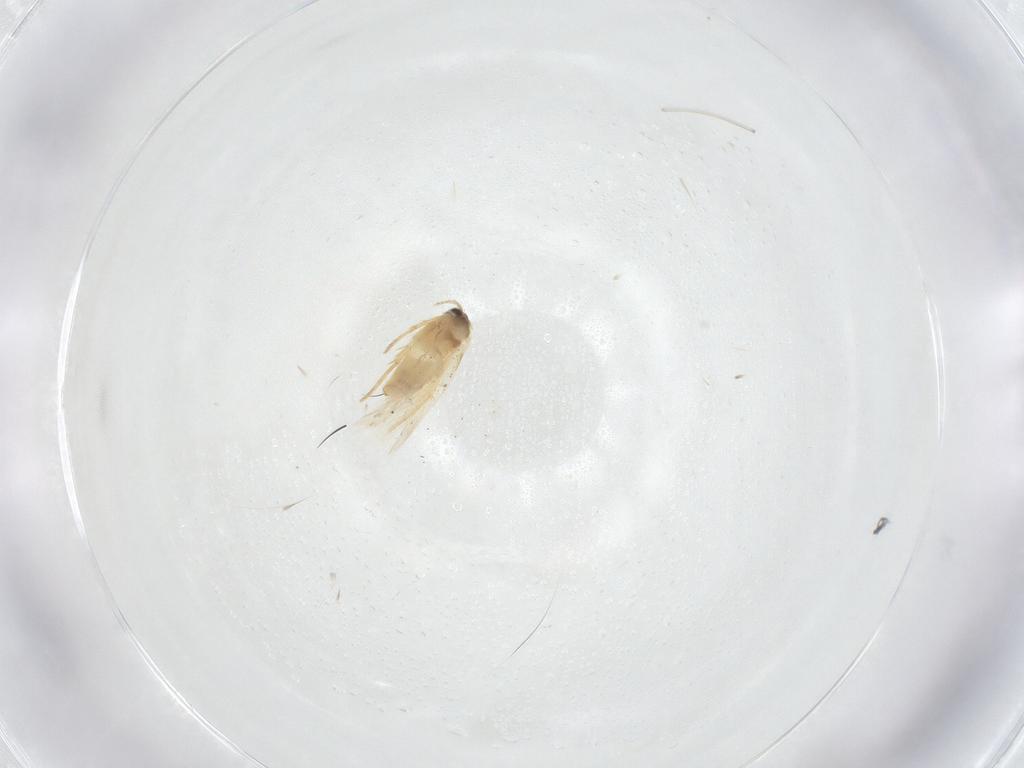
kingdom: Animalia
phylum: Arthropoda
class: Insecta
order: Lepidoptera
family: Crambidae
